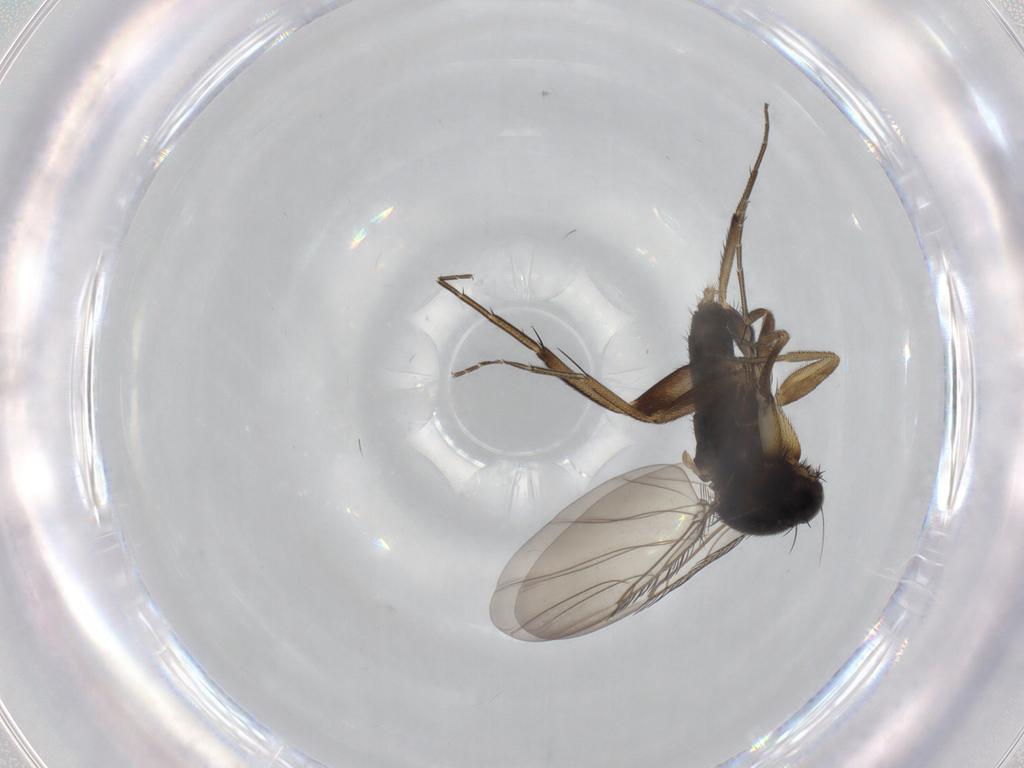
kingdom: Animalia
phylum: Arthropoda
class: Insecta
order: Diptera
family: Phoridae
